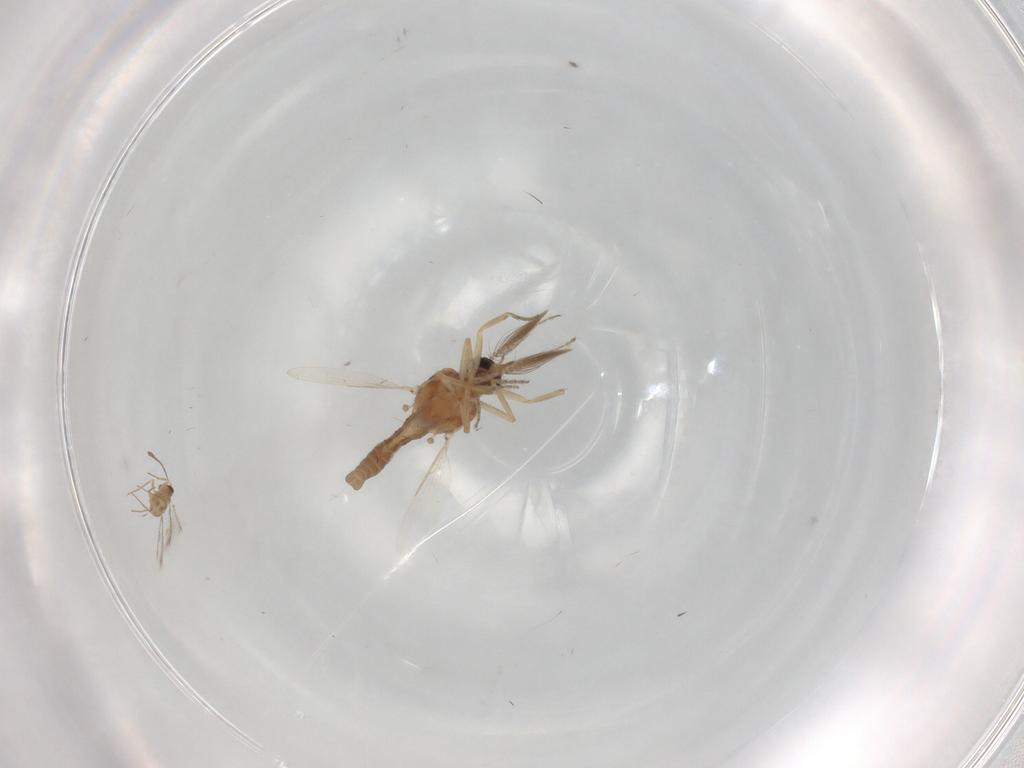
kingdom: Animalia
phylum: Arthropoda
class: Insecta
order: Diptera
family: Ceratopogonidae
